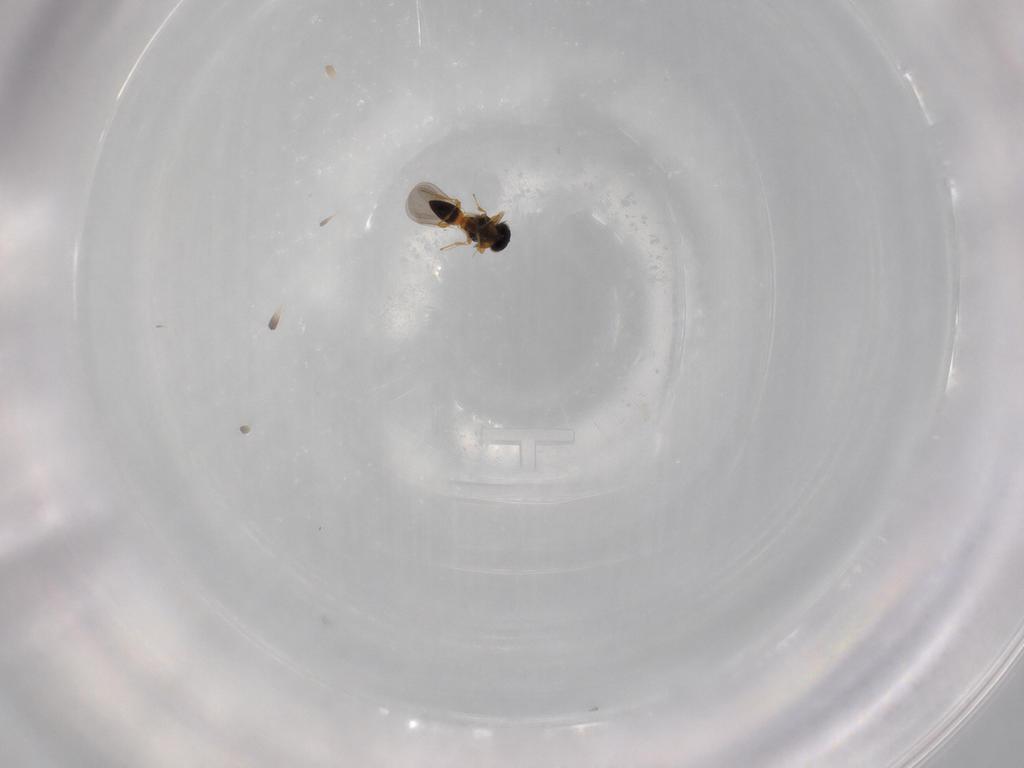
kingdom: Animalia
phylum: Arthropoda
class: Insecta
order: Hymenoptera
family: Platygastridae
